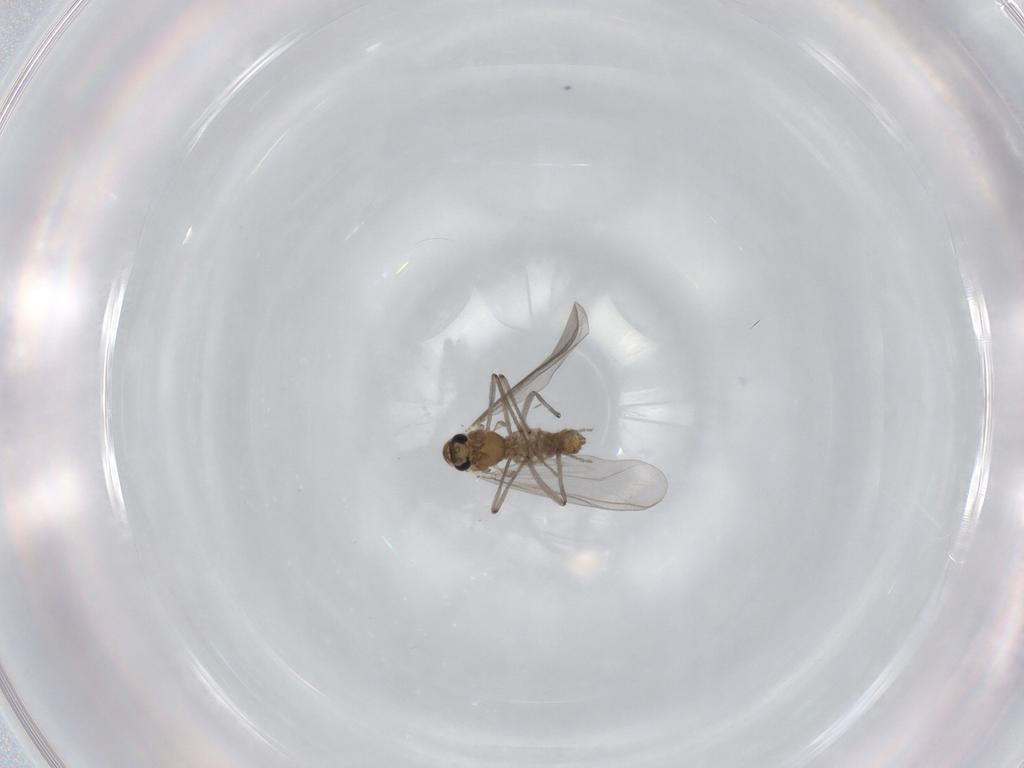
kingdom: Animalia
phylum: Arthropoda
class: Insecta
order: Diptera
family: Chironomidae
